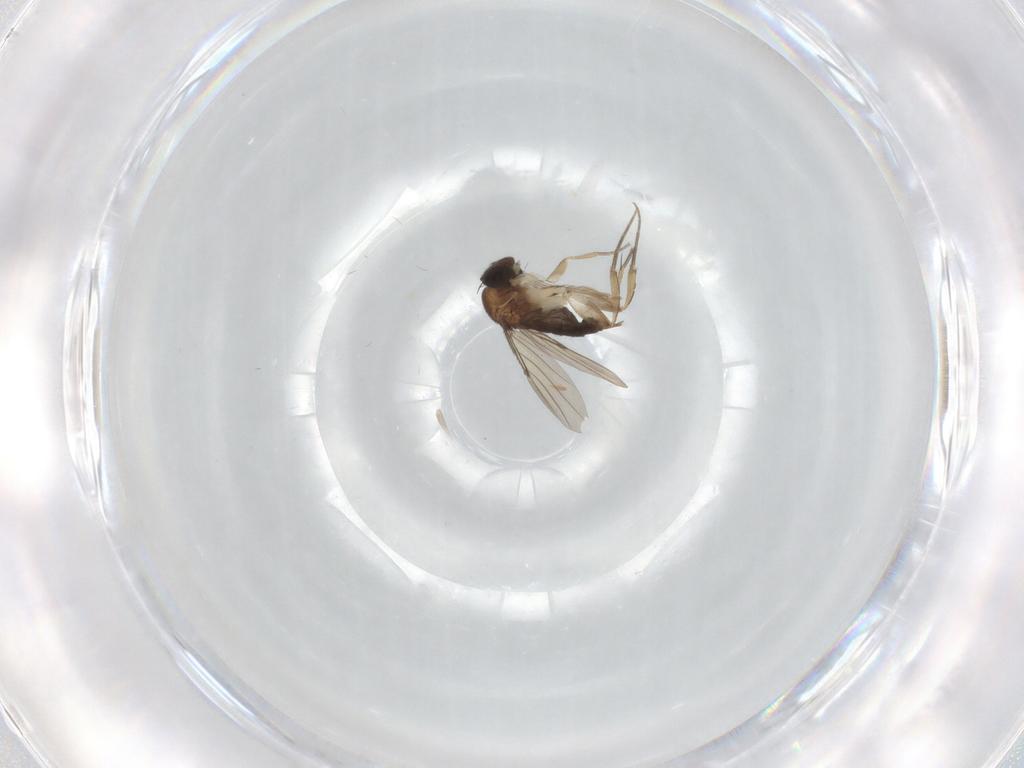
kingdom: Animalia
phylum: Arthropoda
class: Insecta
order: Diptera
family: Phoridae
